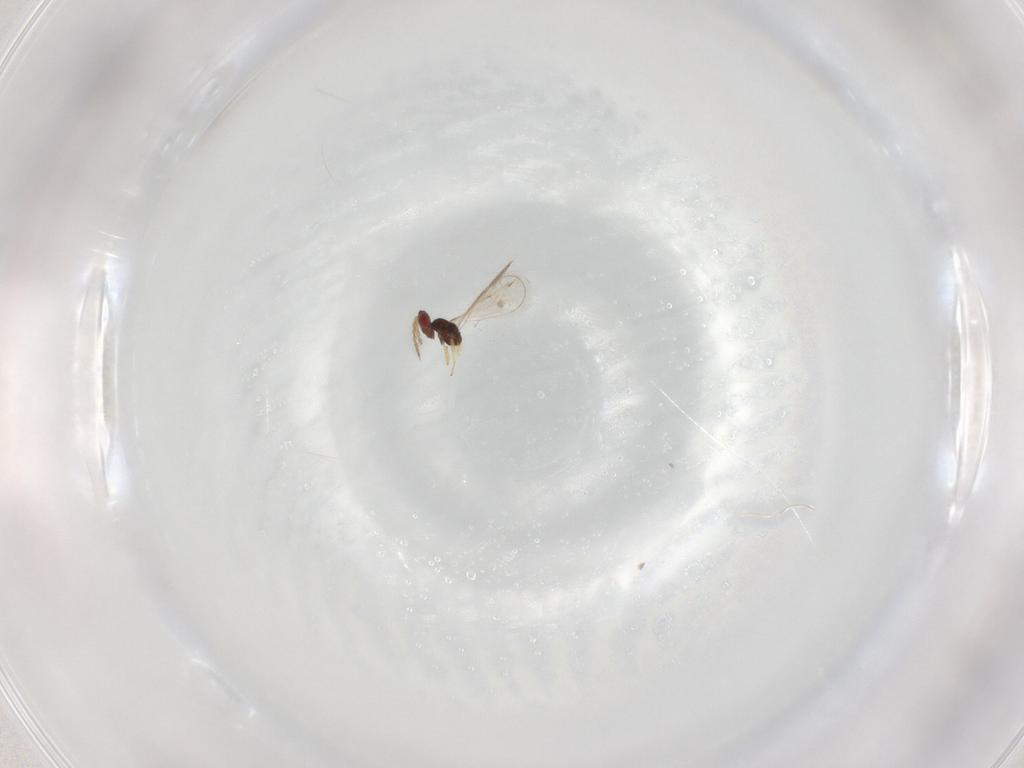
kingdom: Animalia
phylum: Arthropoda
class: Insecta
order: Hymenoptera
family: Eulophidae
